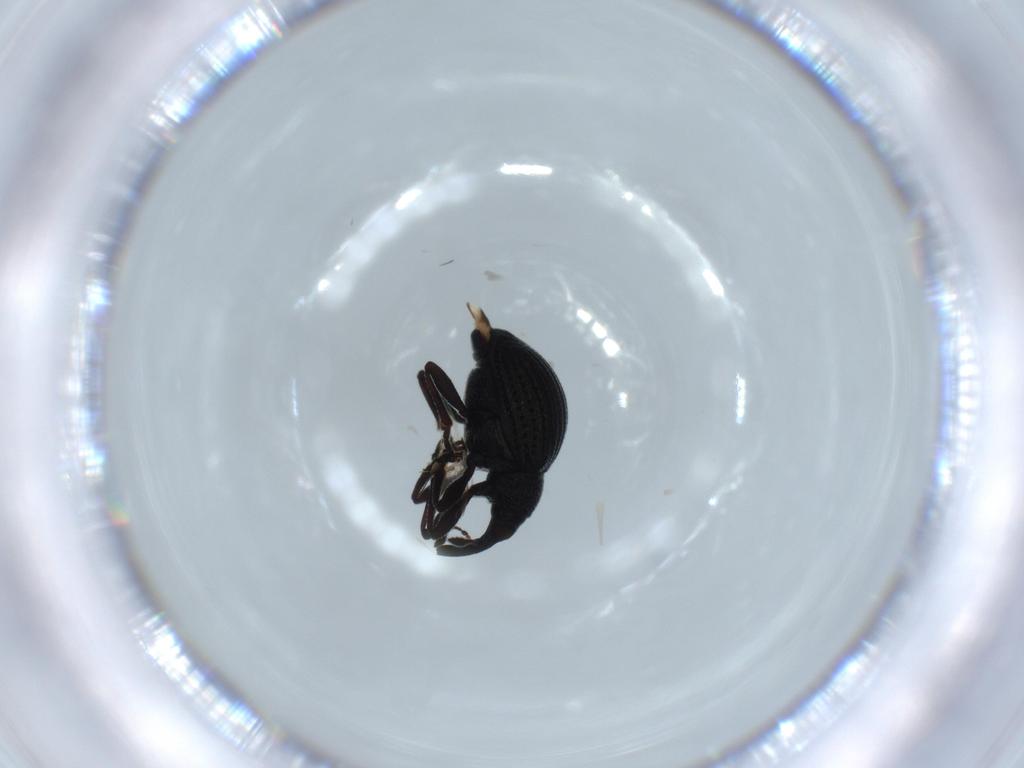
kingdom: Animalia
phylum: Arthropoda
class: Insecta
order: Coleoptera
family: Brentidae
